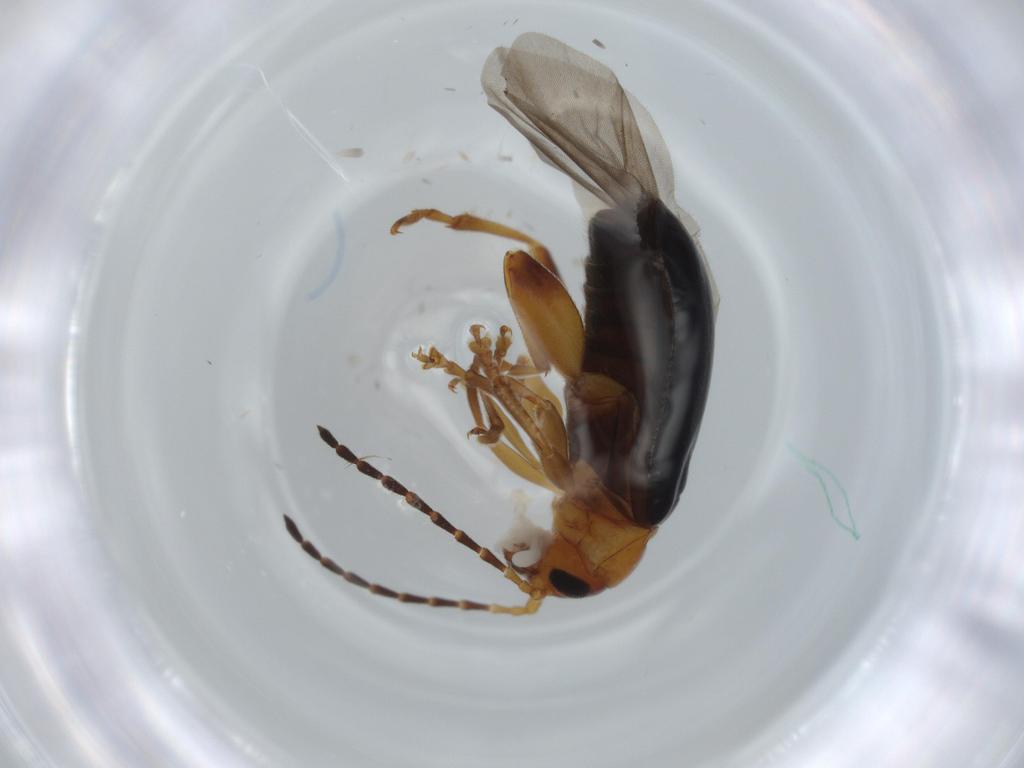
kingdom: Animalia
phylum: Arthropoda
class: Insecta
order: Coleoptera
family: Chrysomelidae
